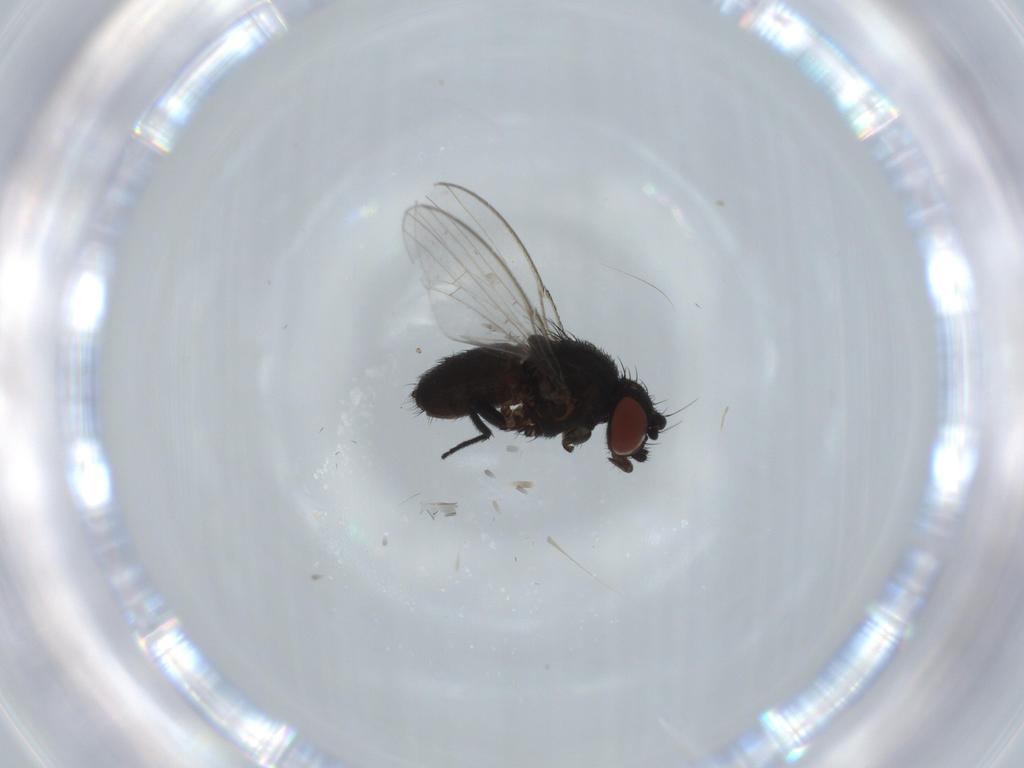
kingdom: Animalia
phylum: Arthropoda
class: Insecta
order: Diptera
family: Milichiidae
